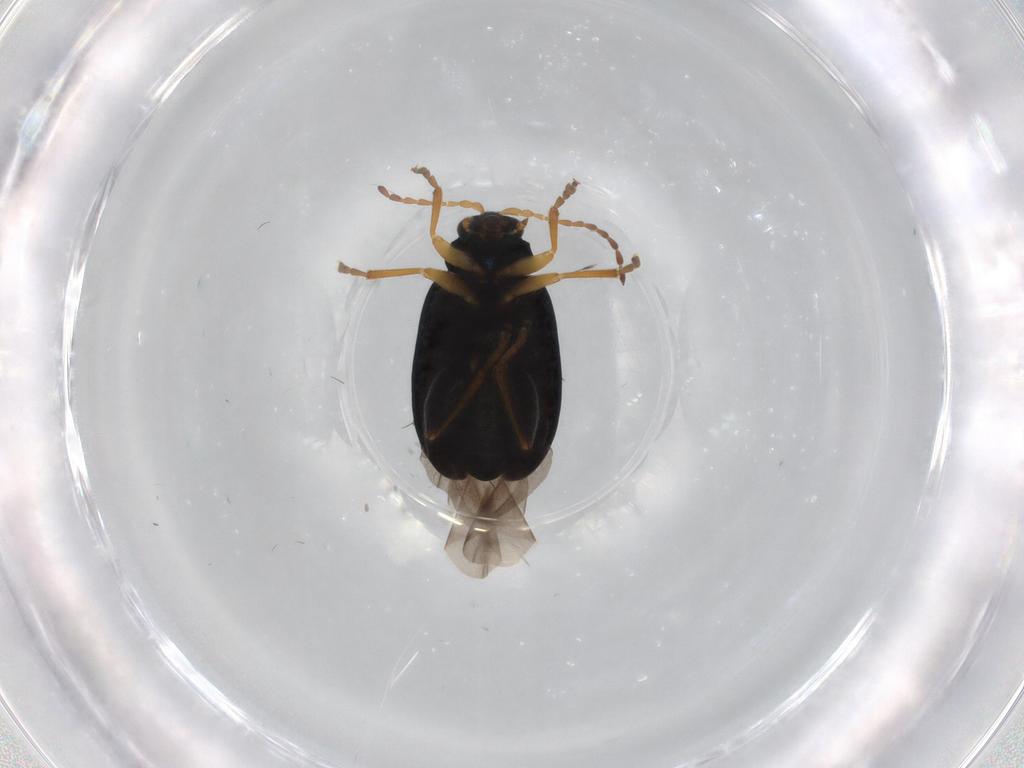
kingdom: Animalia
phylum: Arthropoda
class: Insecta
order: Coleoptera
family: Chrysomelidae
